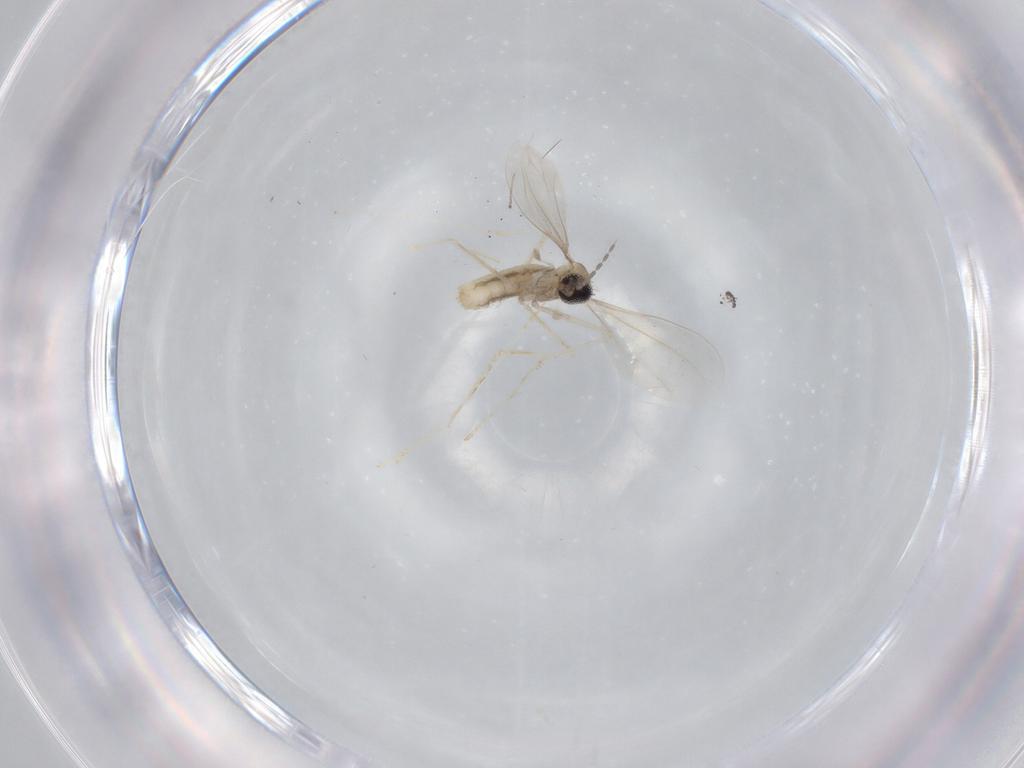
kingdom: Animalia
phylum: Arthropoda
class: Insecta
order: Diptera
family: Cecidomyiidae
